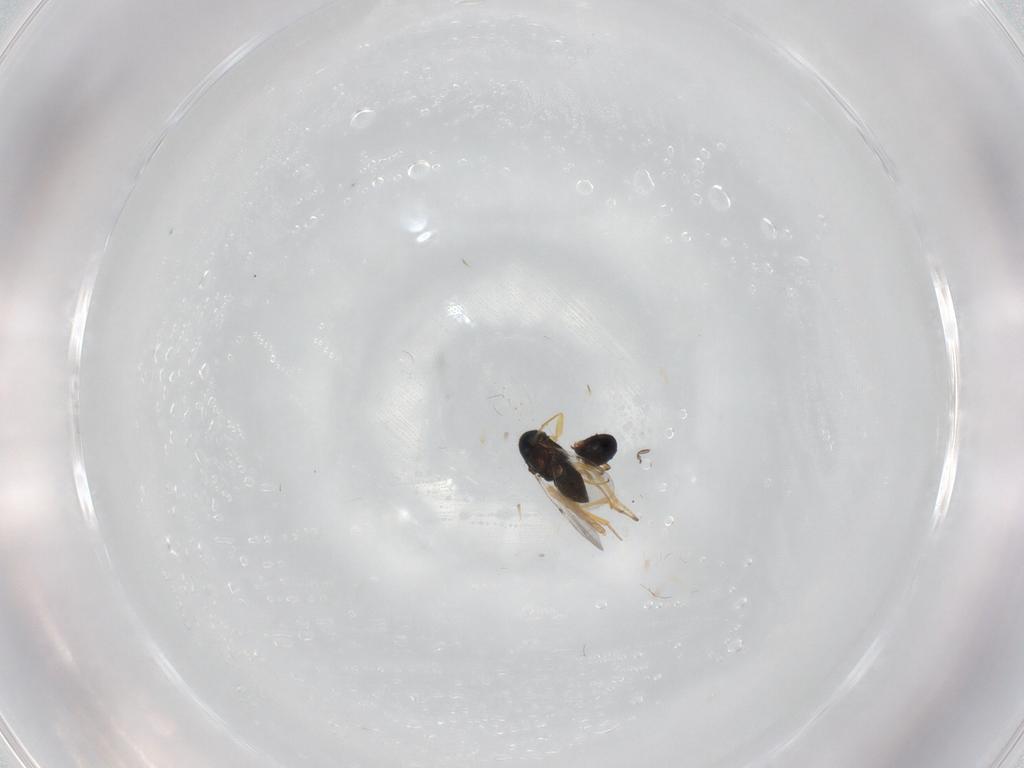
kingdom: Animalia
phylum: Arthropoda
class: Insecta
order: Hymenoptera
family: Encyrtidae
